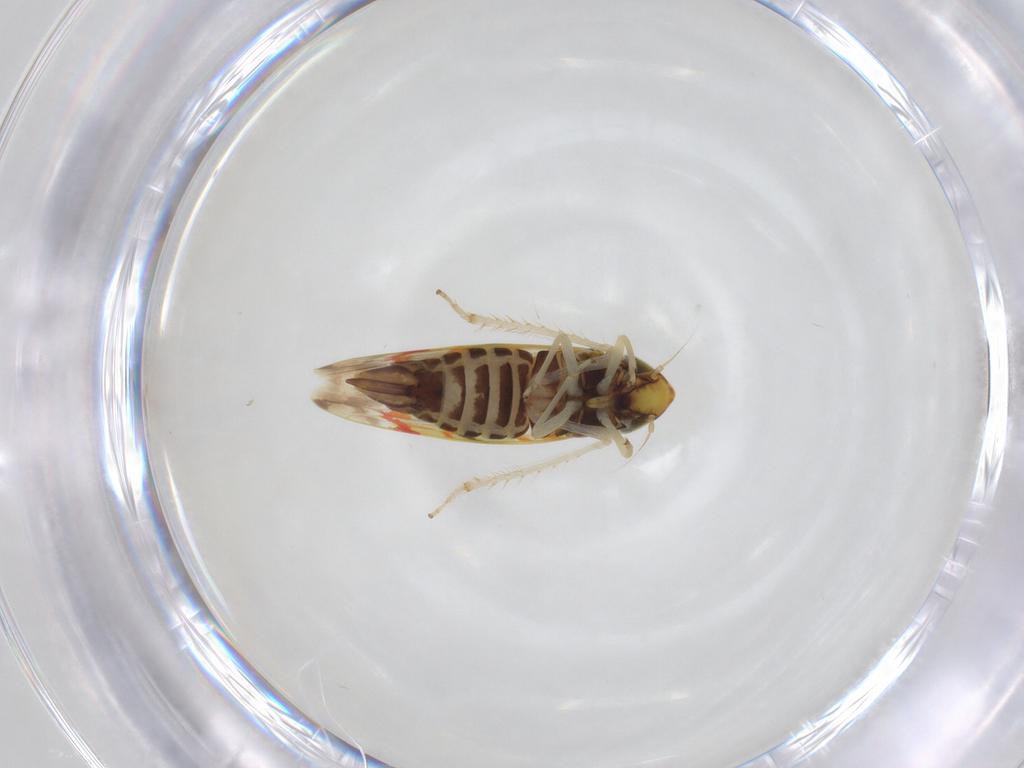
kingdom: Animalia
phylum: Arthropoda
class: Insecta
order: Hemiptera
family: Cicadellidae
